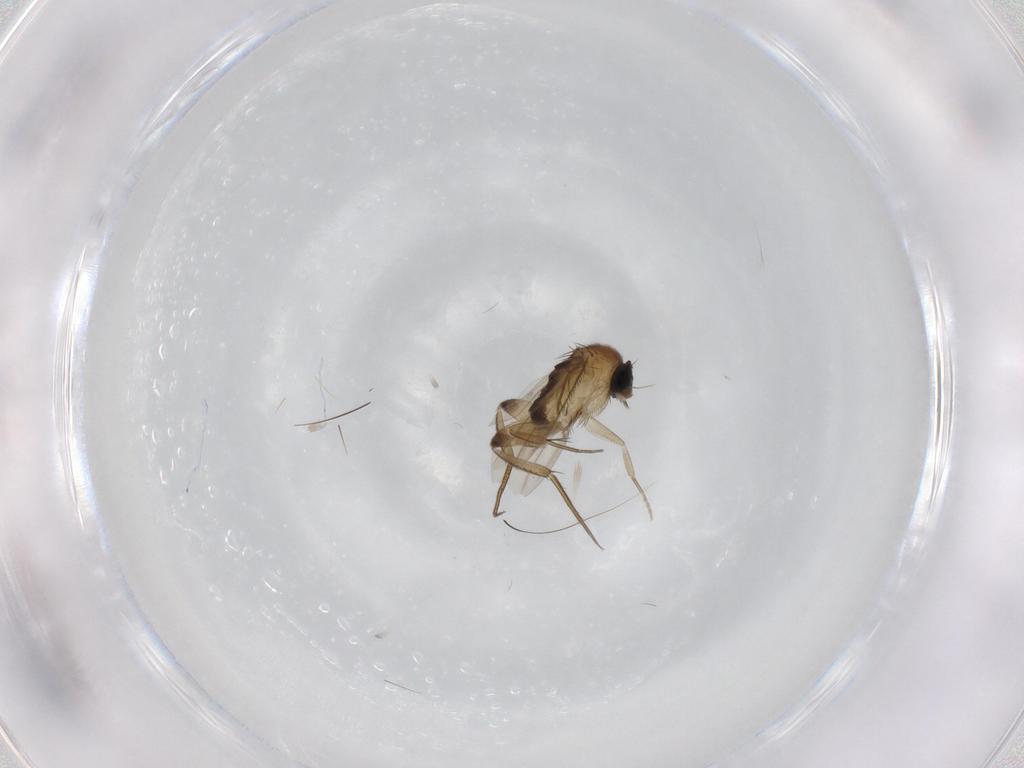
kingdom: Animalia
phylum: Arthropoda
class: Insecta
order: Diptera
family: Phoridae
